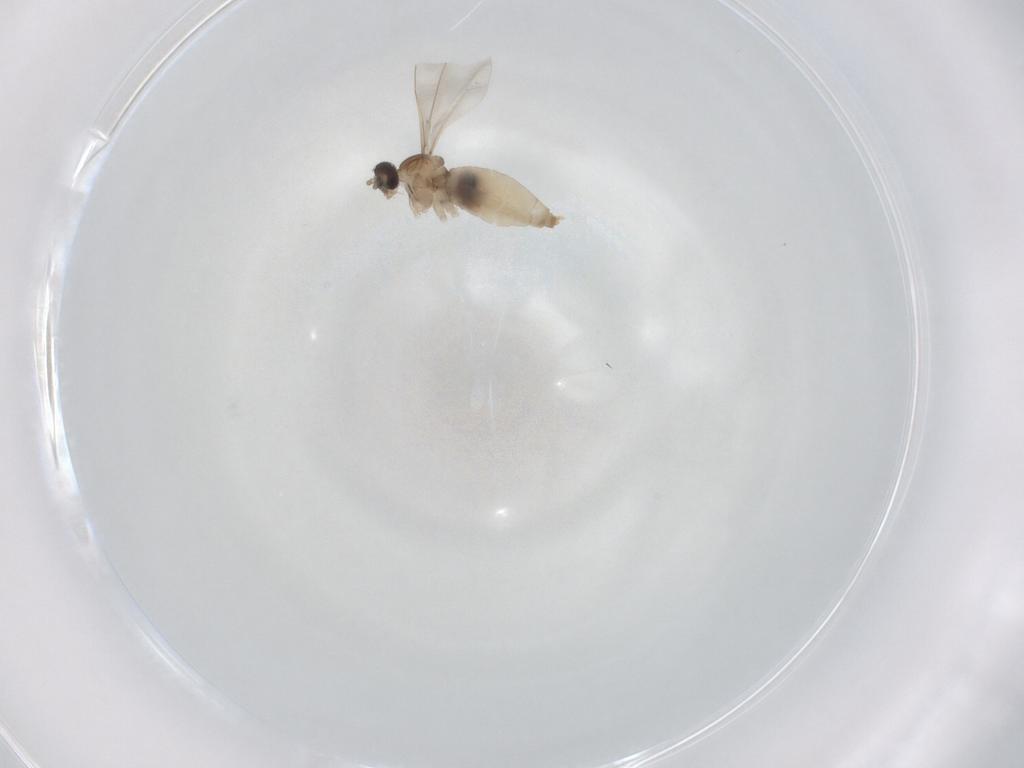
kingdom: Animalia
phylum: Arthropoda
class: Insecta
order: Diptera
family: Cecidomyiidae
